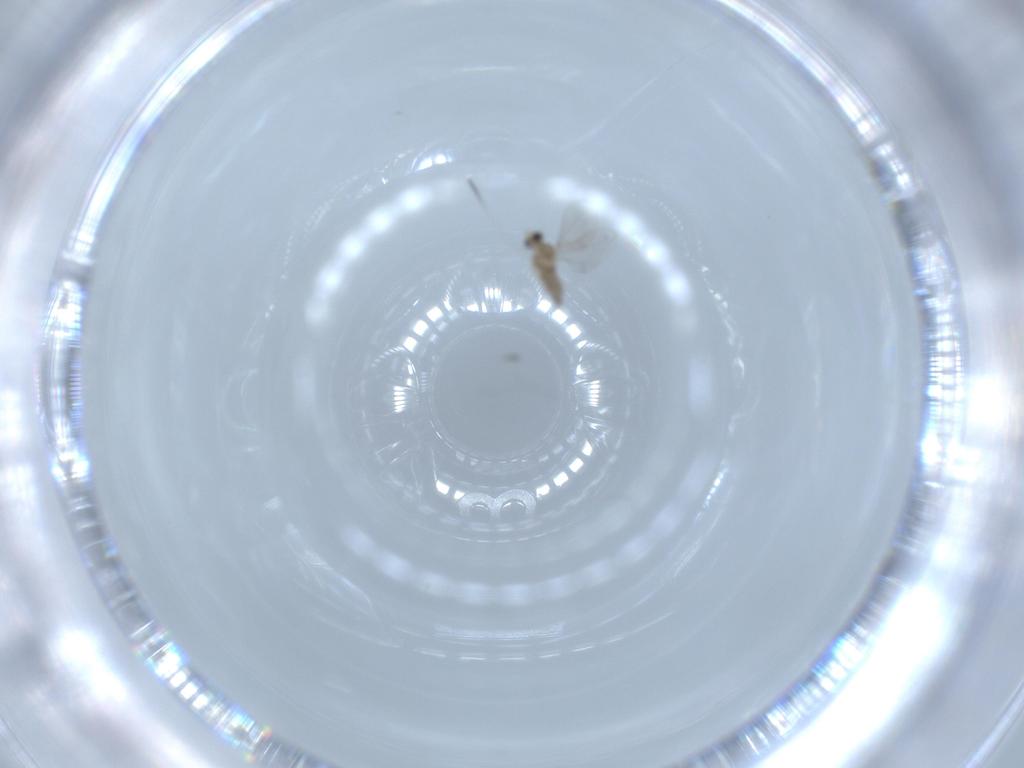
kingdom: Animalia
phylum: Arthropoda
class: Insecta
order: Diptera
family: Cecidomyiidae
